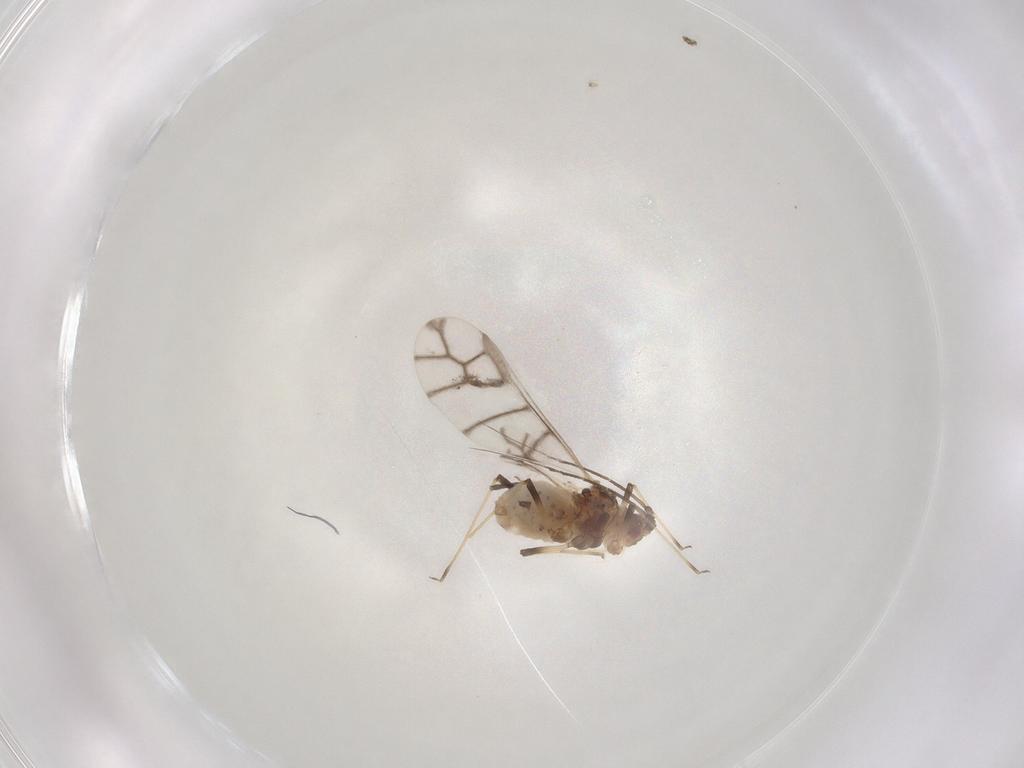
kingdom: Animalia
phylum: Arthropoda
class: Insecta
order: Hemiptera
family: Aphididae
